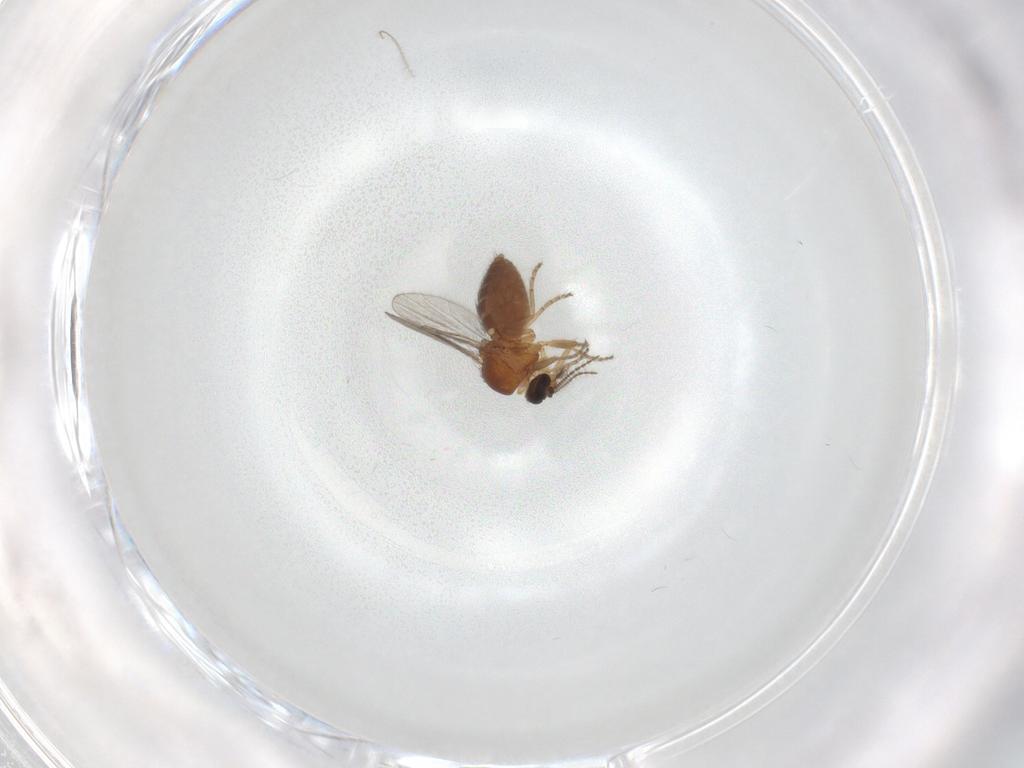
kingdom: Animalia
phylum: Arthropoda
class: Insecta
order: Diptera
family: Ceratopogonidae
